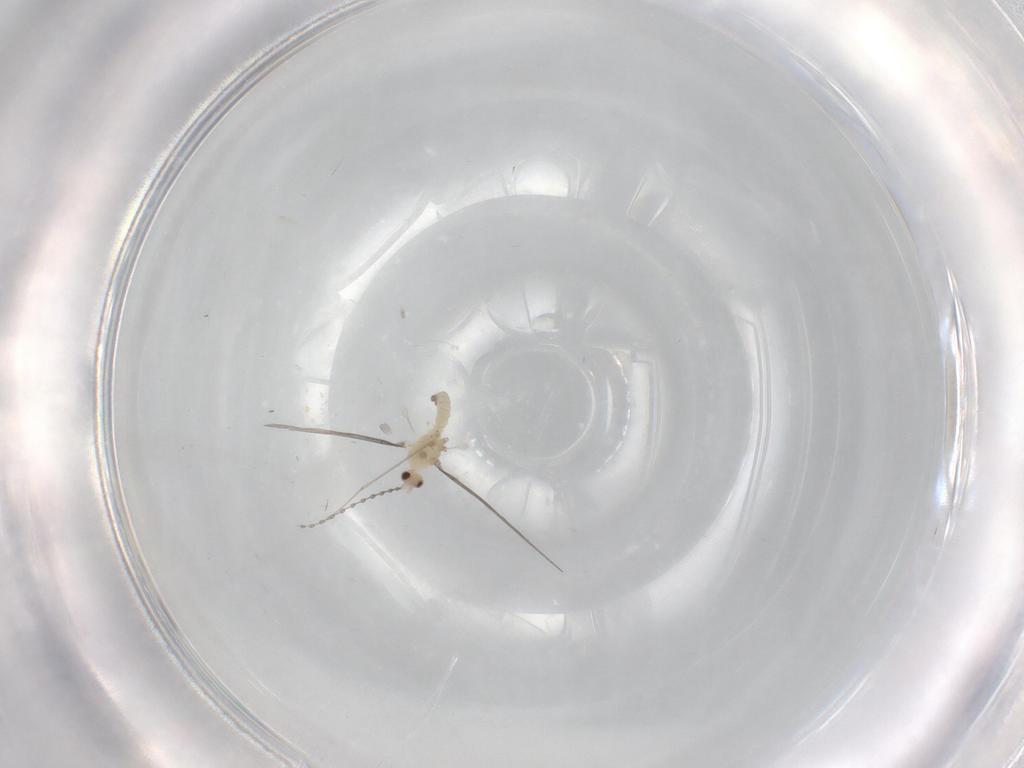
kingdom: Animalia
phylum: Arthropoda
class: Insecta
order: Diptera
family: Cecidomyiidae
